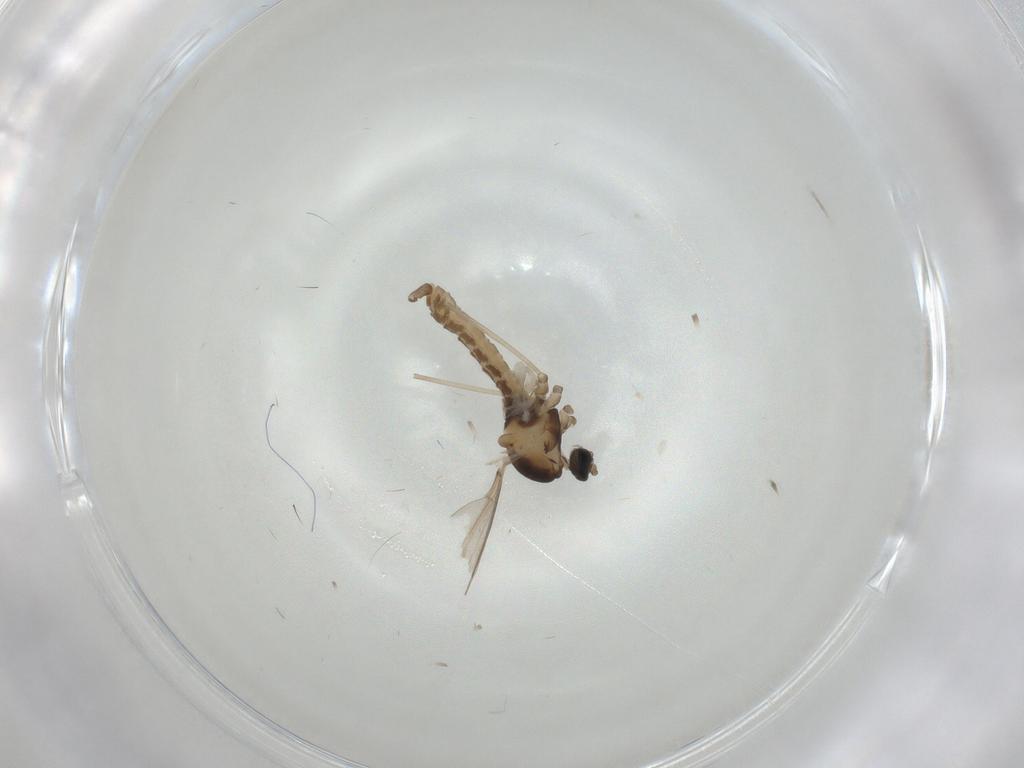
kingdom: Animalia
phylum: Arthropoda
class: Insecta
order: Diptera
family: Cecidomyiidae
